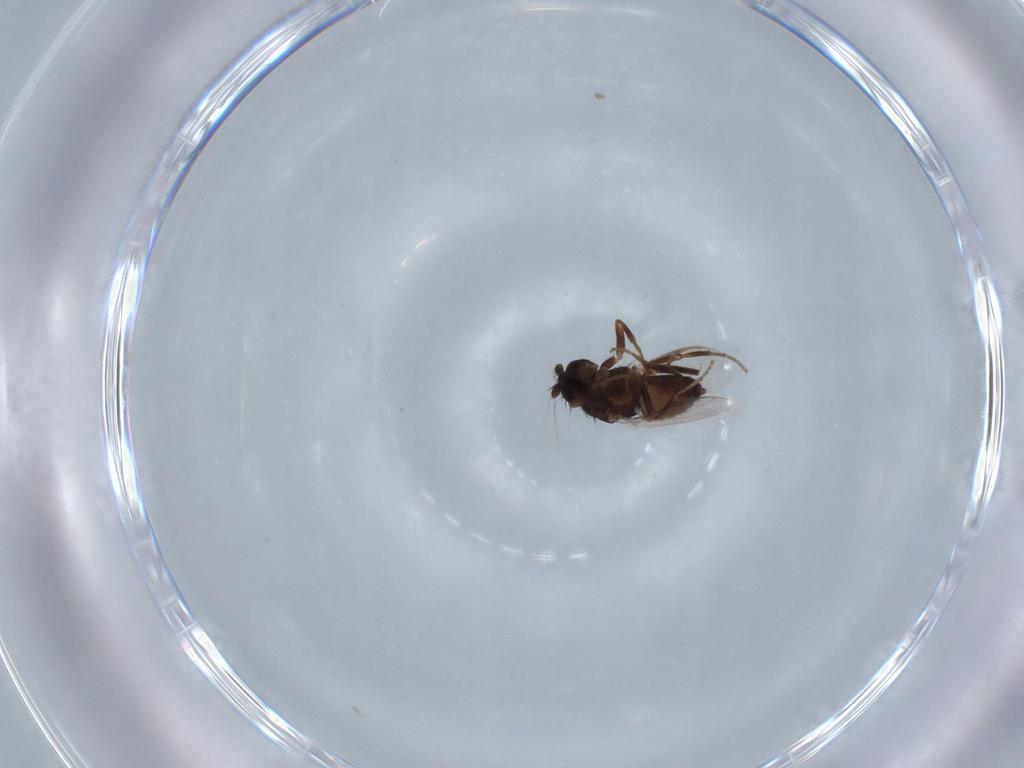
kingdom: Animalia
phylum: Arthropoda
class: Insecta
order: Diptera
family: Sphaeroceridae
